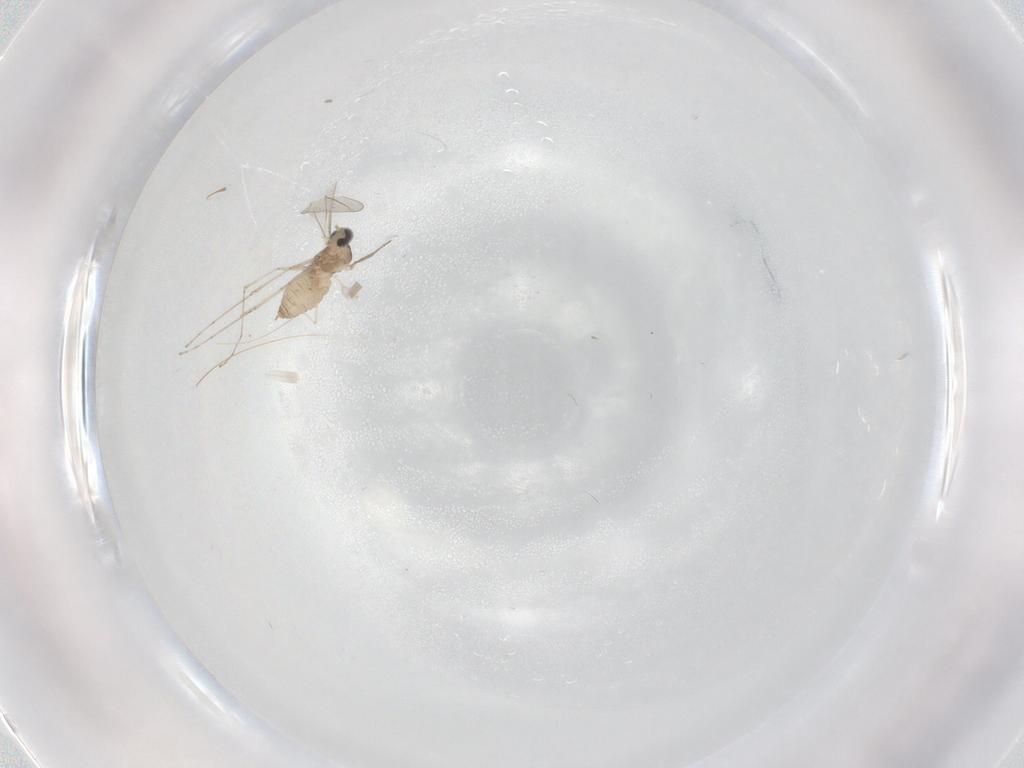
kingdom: Animalia
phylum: Arthropoda
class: Insecta
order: Diptera
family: Cecidomyiidae
